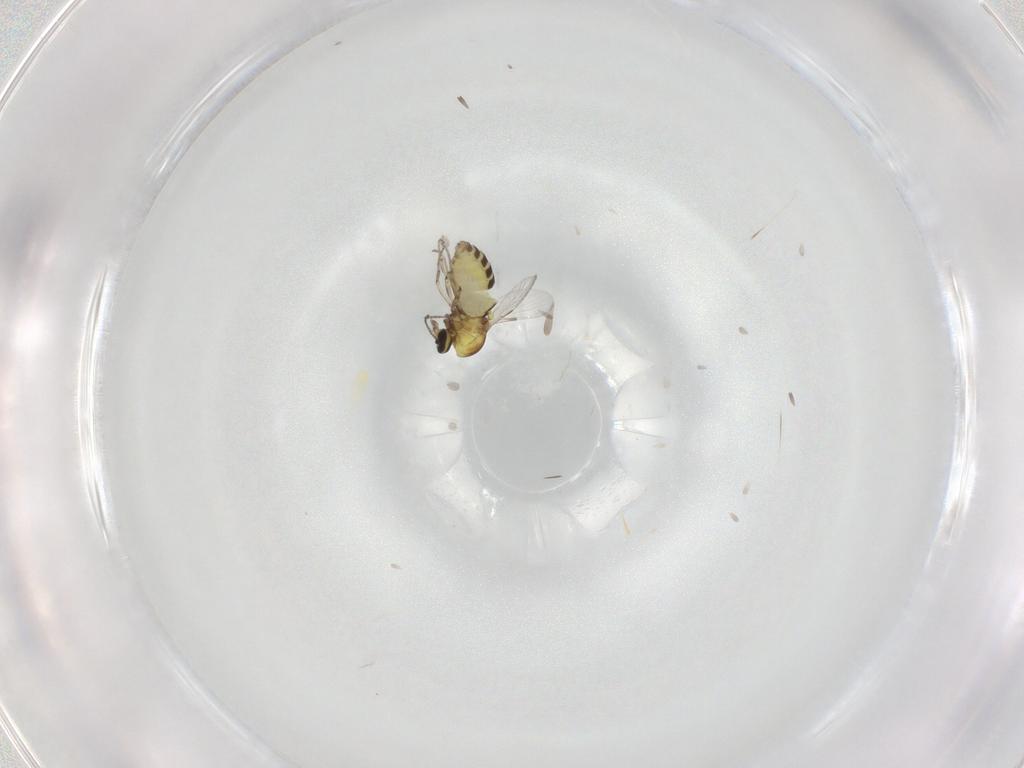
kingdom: Animalia
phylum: Arthropoda
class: Insecta
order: Diptera
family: Ceratopogonidae
